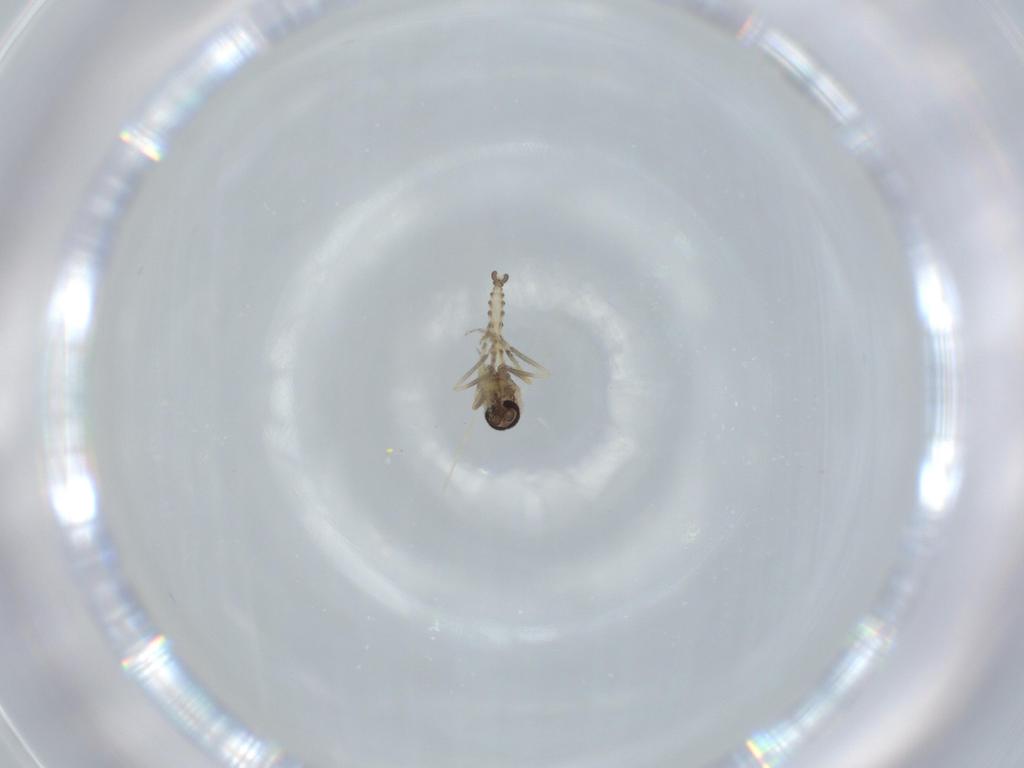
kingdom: Animalia
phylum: Arthropoda
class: Insecta
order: Diptera
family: Ceratopogonidae
